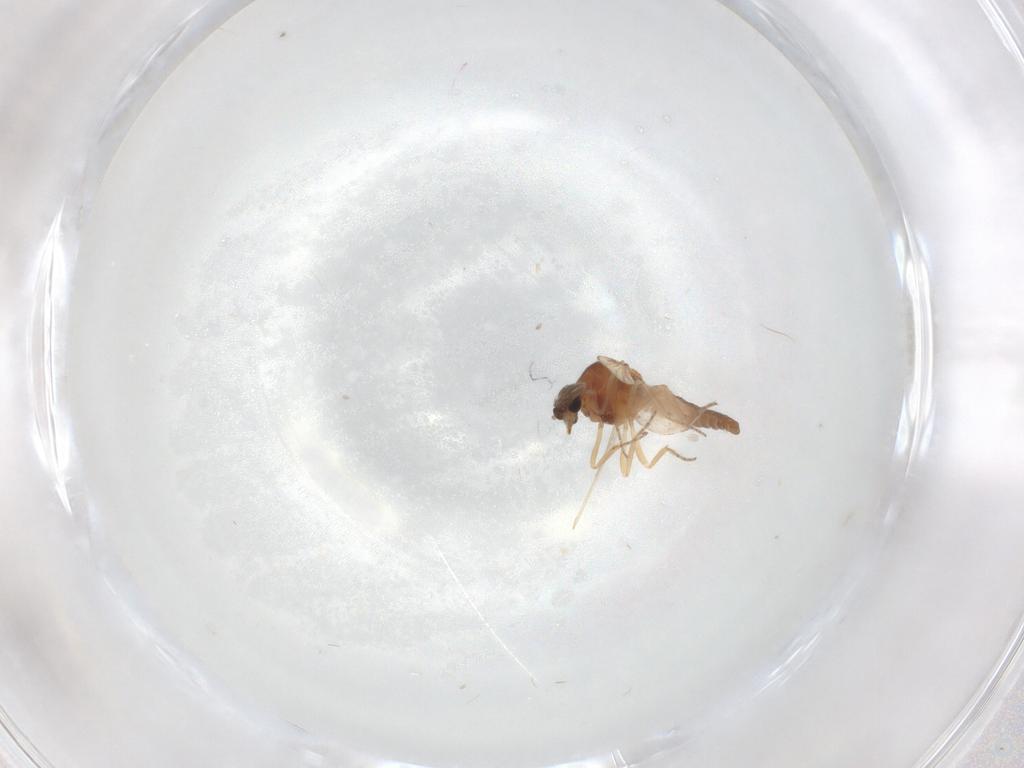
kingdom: Animalia
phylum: Arthropoda
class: Insecta
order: Diptera
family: Ceratopogonidae
